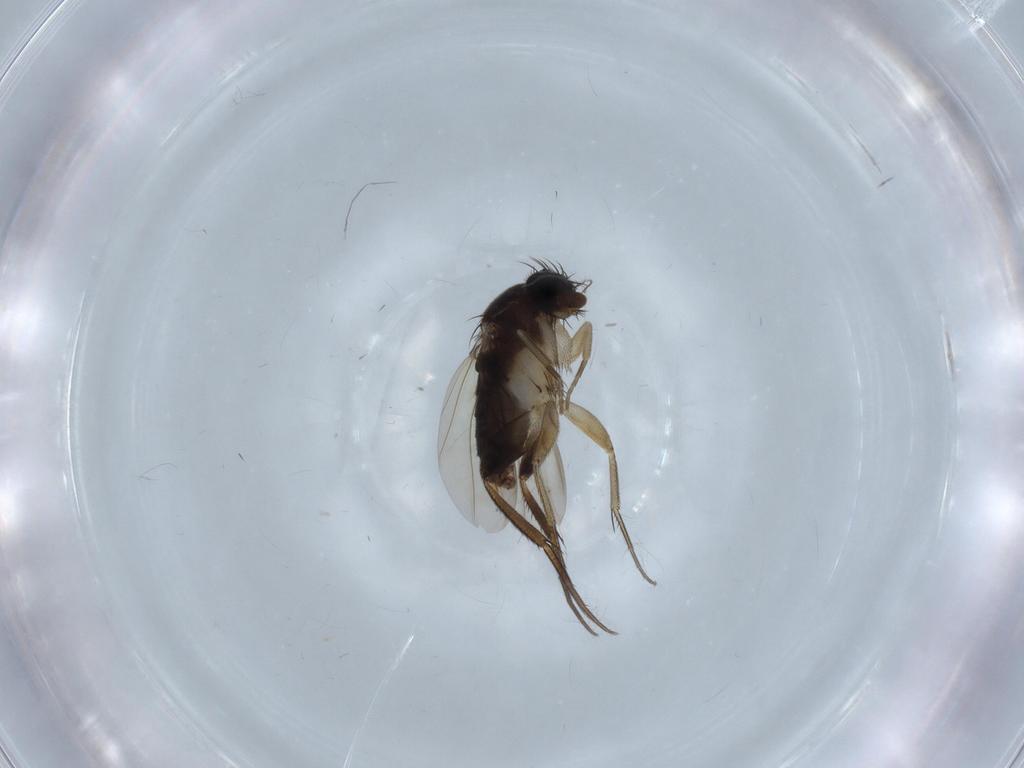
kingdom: Animalia
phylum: Arthropoda
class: Insecta
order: Diptera
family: Phoridae
